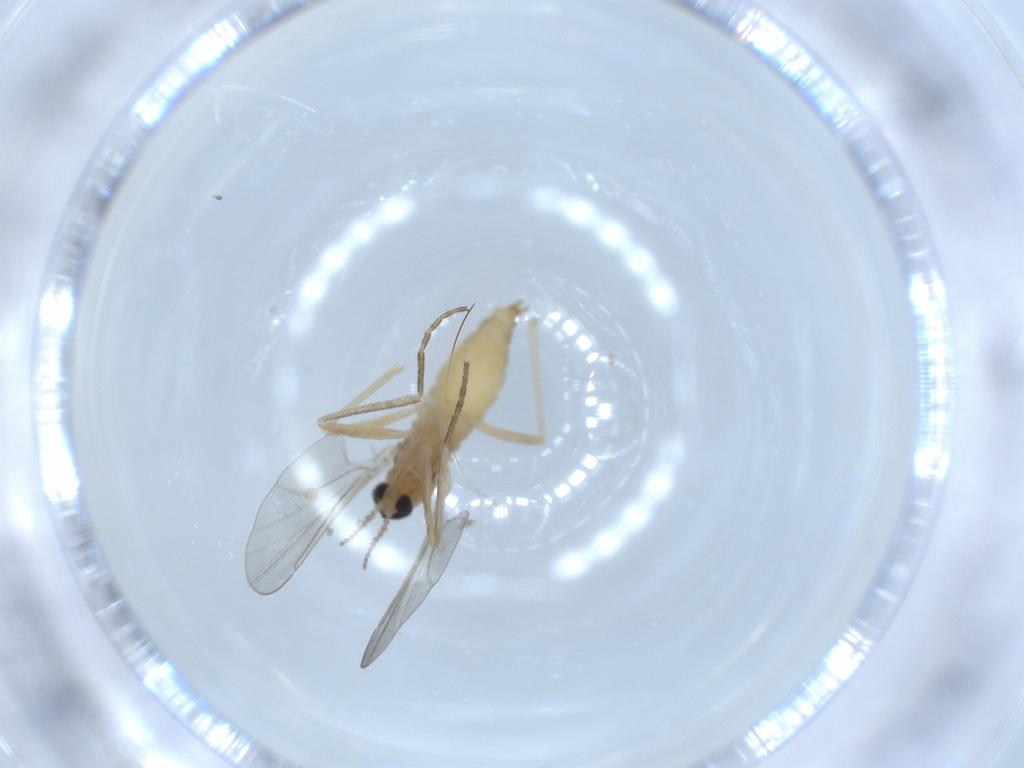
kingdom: Animalia
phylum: Arthropoda
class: Insecta
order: Diptera
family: Cecidomyiidae
